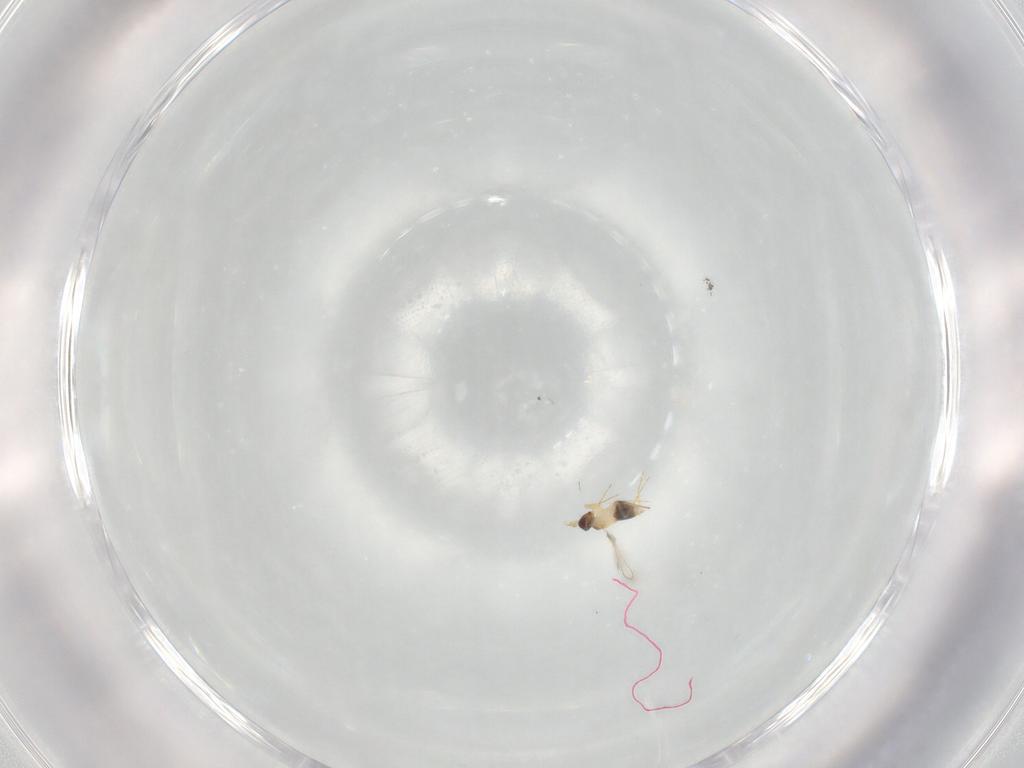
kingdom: Animalia
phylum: Arthropoda
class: Insecta
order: Hymenoptera
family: Mymaridae
